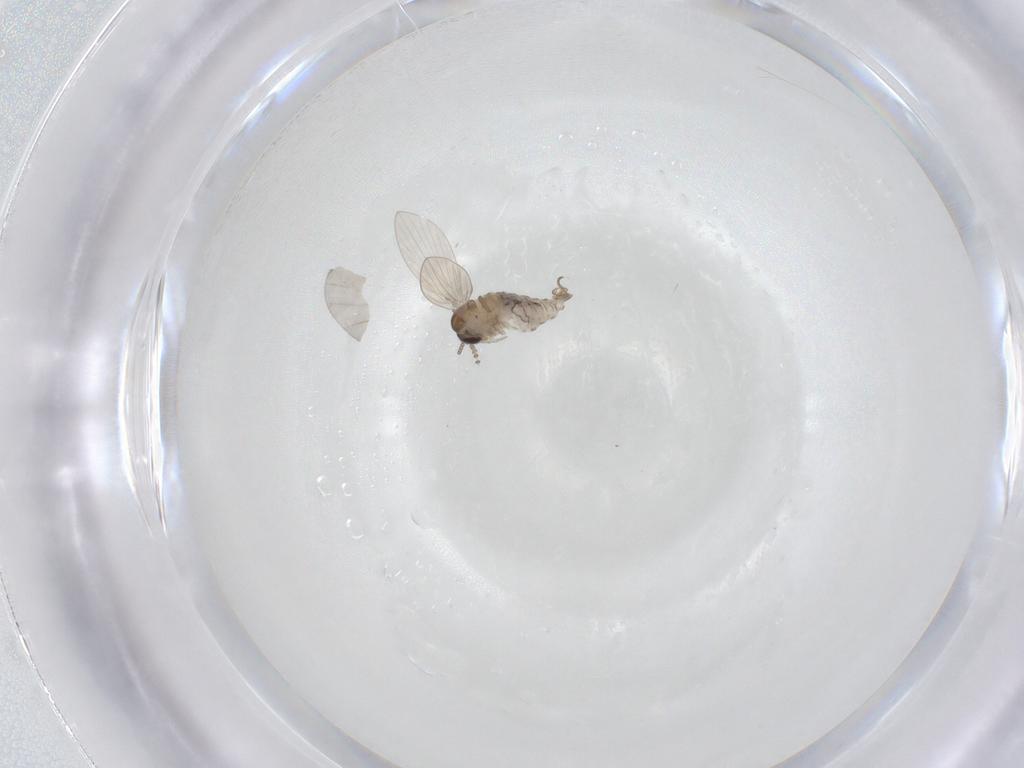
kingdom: Animalia
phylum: Arthropoda
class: Insecta
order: Diptera
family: Psychodidae
